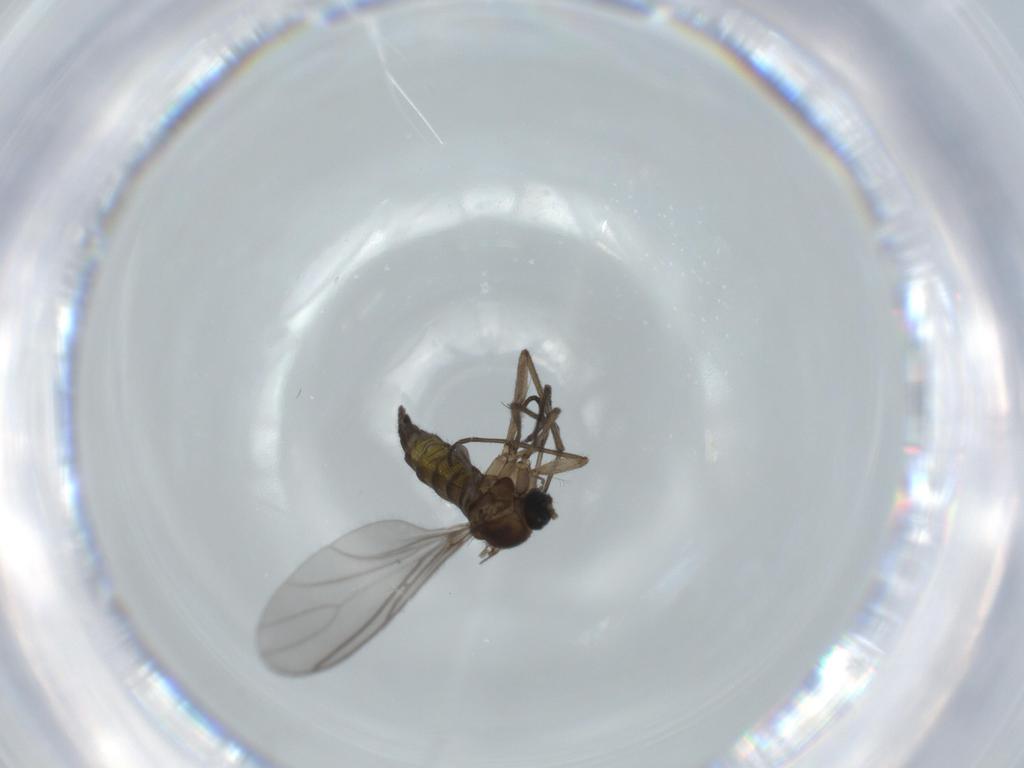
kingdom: Animalia
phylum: Arthropoda
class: Insecta
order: Diptera
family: Sciaridae
